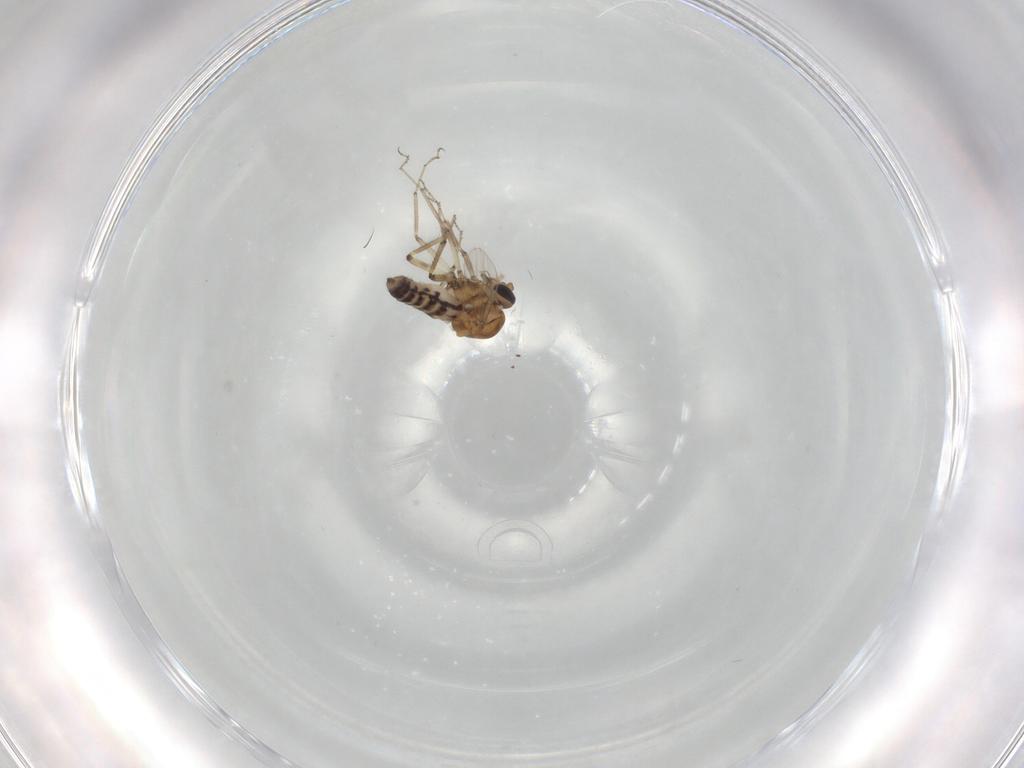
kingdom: Animalia
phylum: Arthropoda
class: Insecta
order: Diptera
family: Ceratopogonidae
